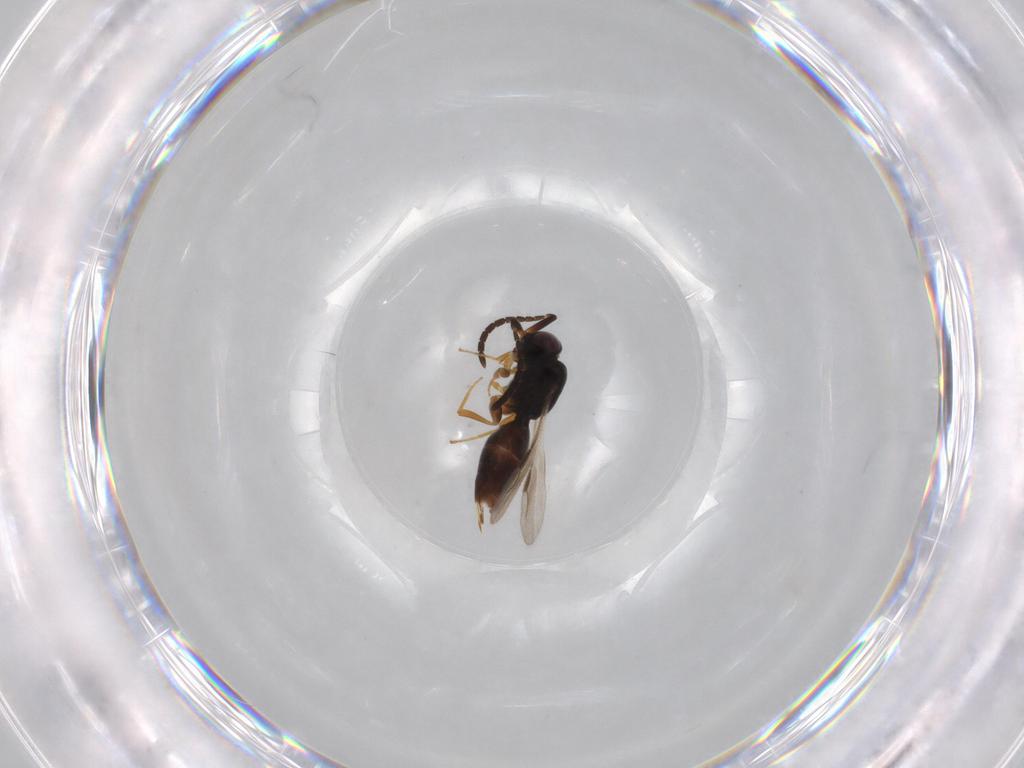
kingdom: Animalia
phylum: Arthropoda
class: Insecta
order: Hymenoptera
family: Megaspilidae
